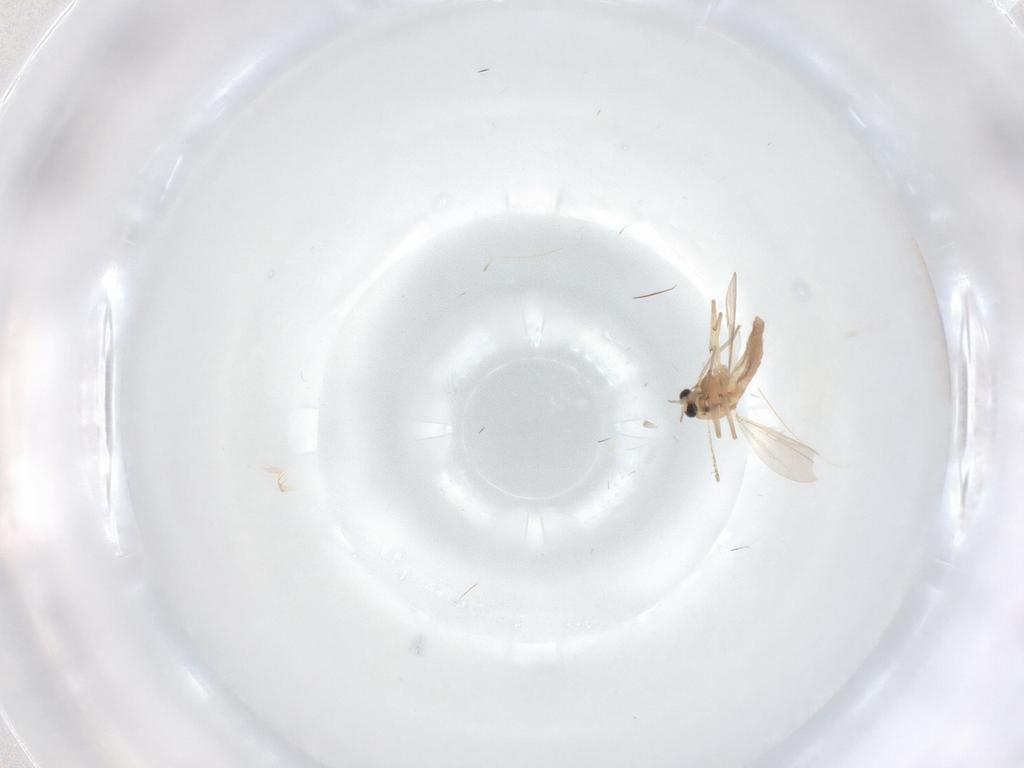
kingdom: Animalia
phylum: Arthropoda
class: Insecta
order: Diptera
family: Cecidomyiidae
